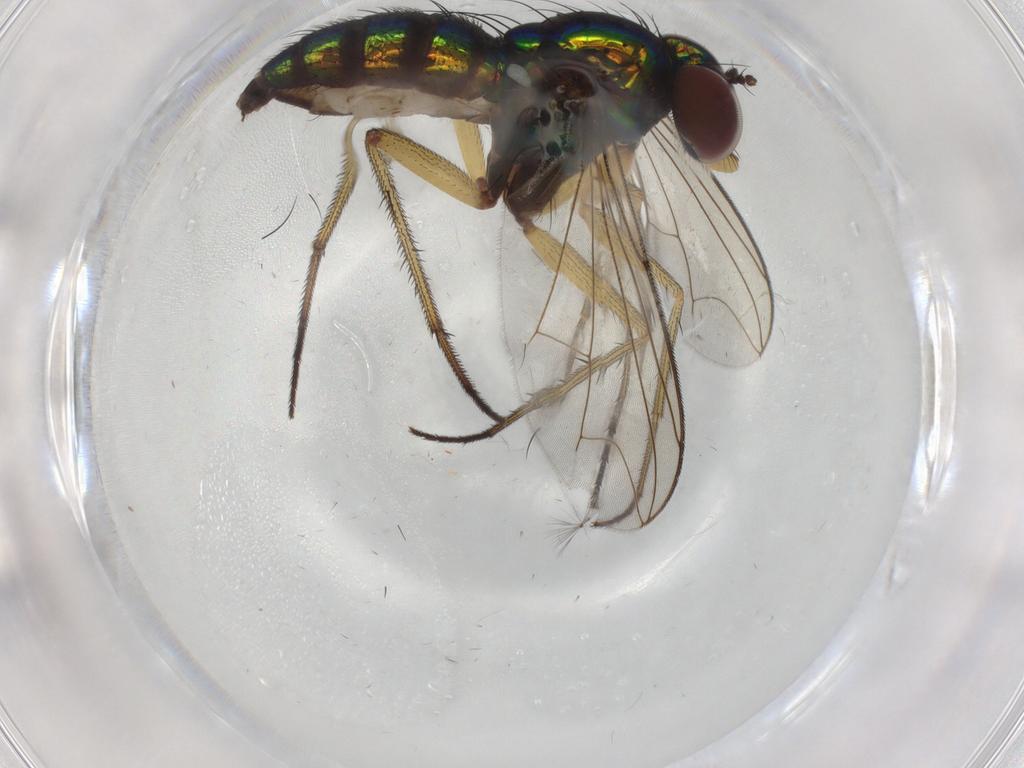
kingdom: Animalia
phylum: Arthropoda
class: Insecta
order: Diptera
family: Dolichopodidae
